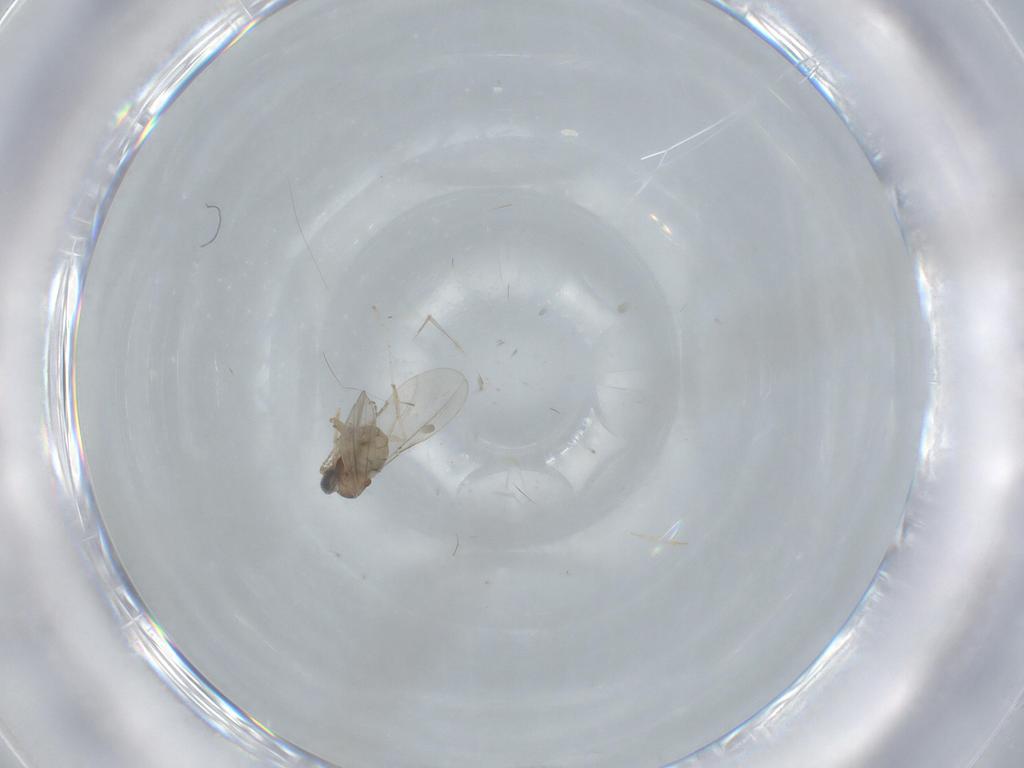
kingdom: Animalia
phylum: Arthropoda
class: Insecta
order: Diptera
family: Cecidomyiidae
